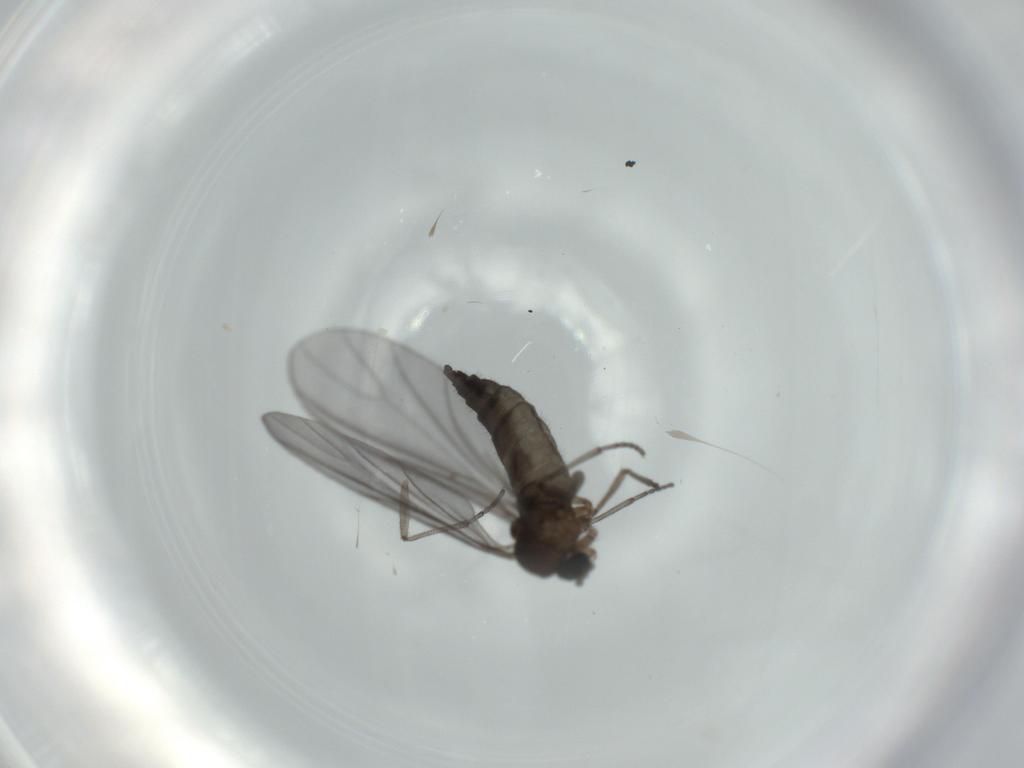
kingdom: Animalia
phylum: Arthropoda
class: Insecta
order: Diptera
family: Sciaridae
